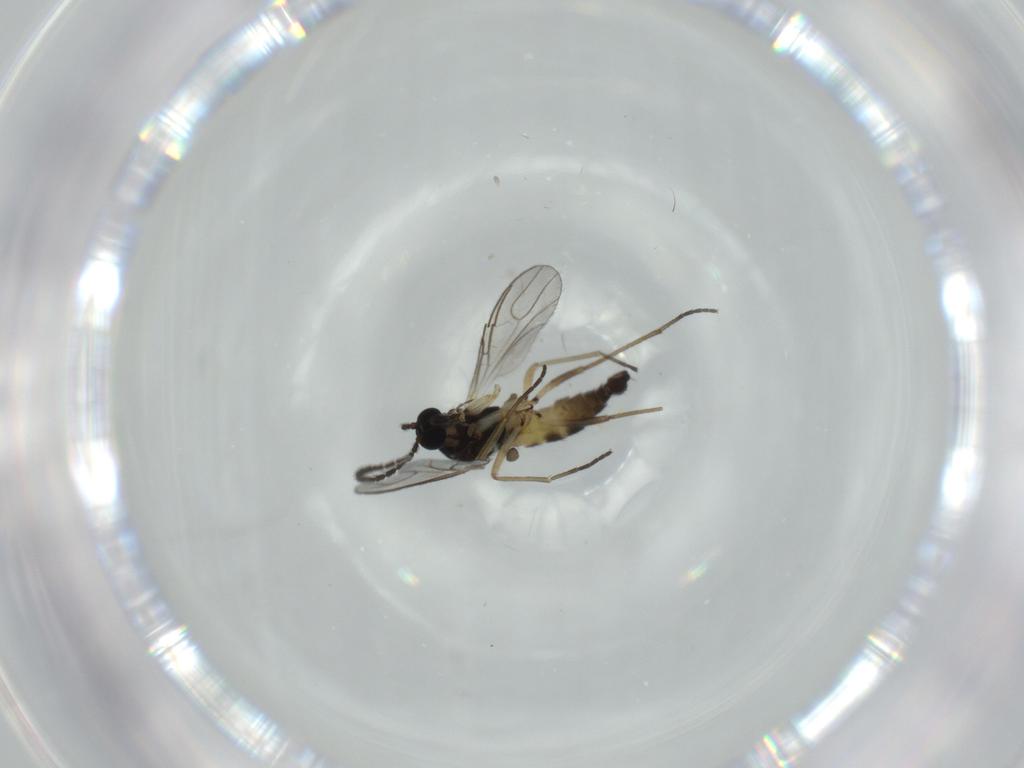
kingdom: Animalia
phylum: Arthropoda
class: Insecta
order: Diptera
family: Sciaridae
